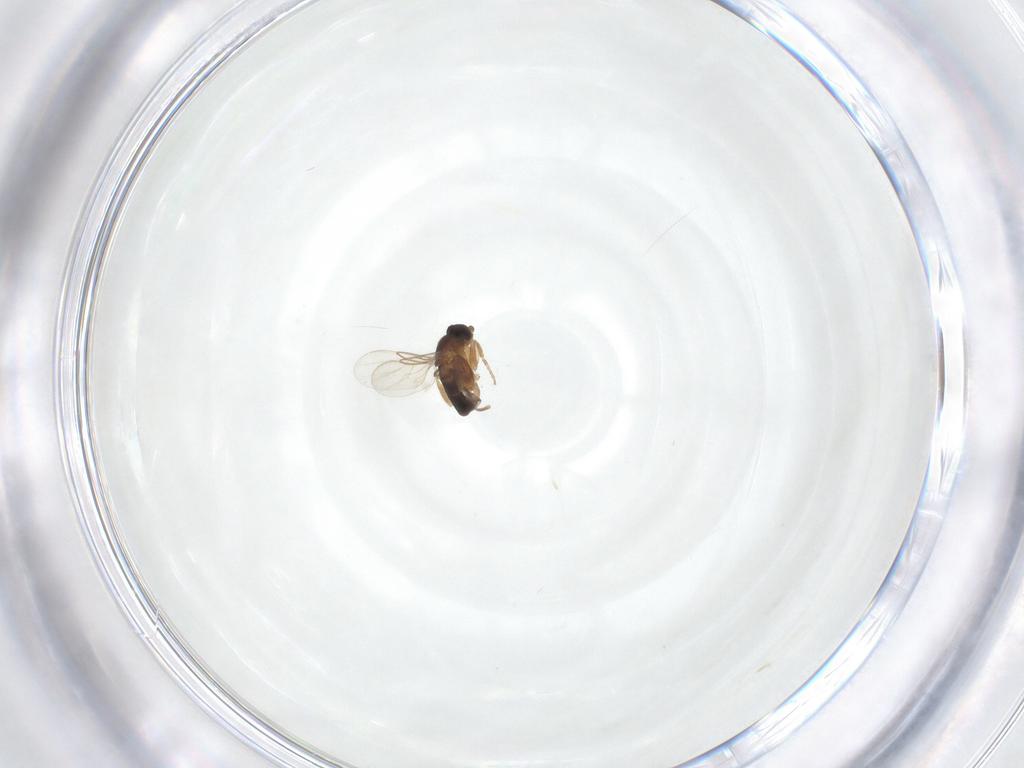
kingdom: Animalia
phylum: Arthropoda
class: Insecta
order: Diptera
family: Phoridae
